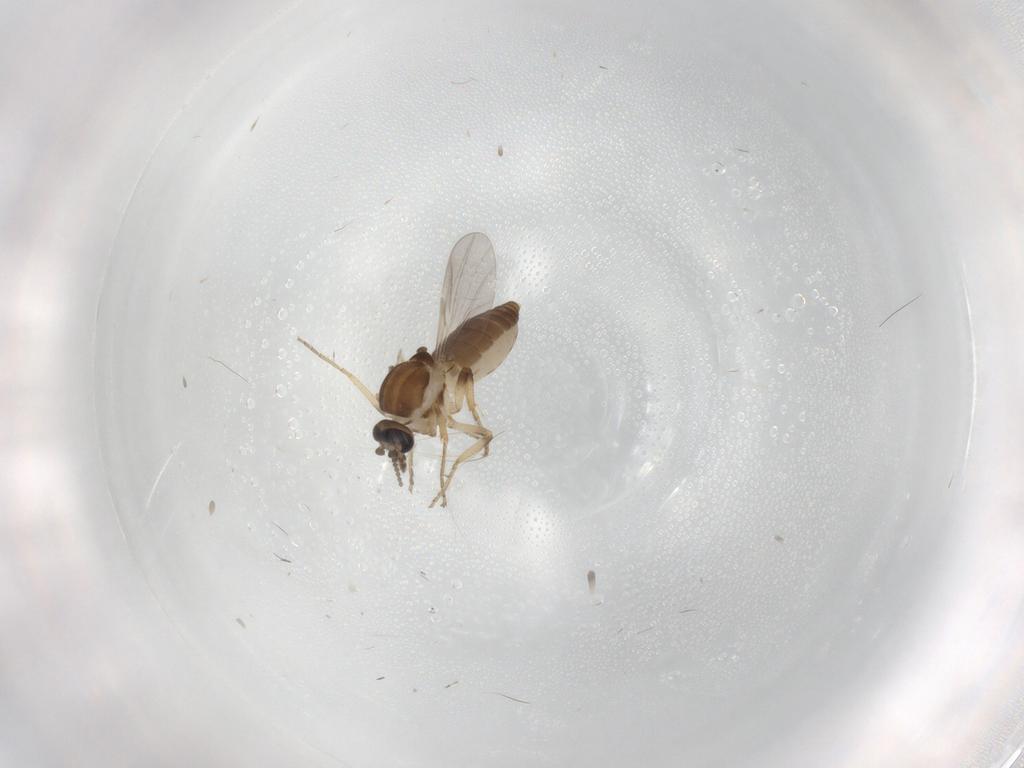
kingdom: Animalia
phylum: Arthropoda
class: Insecta
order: Diptera
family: Ceratopogonidae
